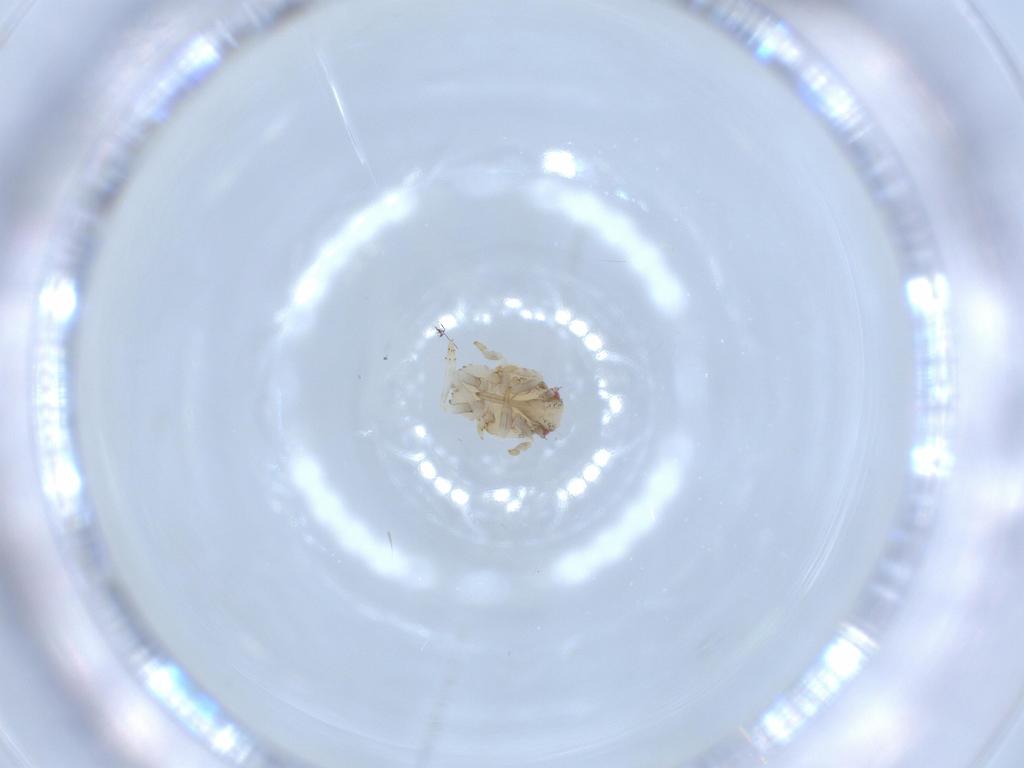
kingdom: Animalia
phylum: Arthropoda
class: Insecta
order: Hemiptera
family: Acanaloniidae
